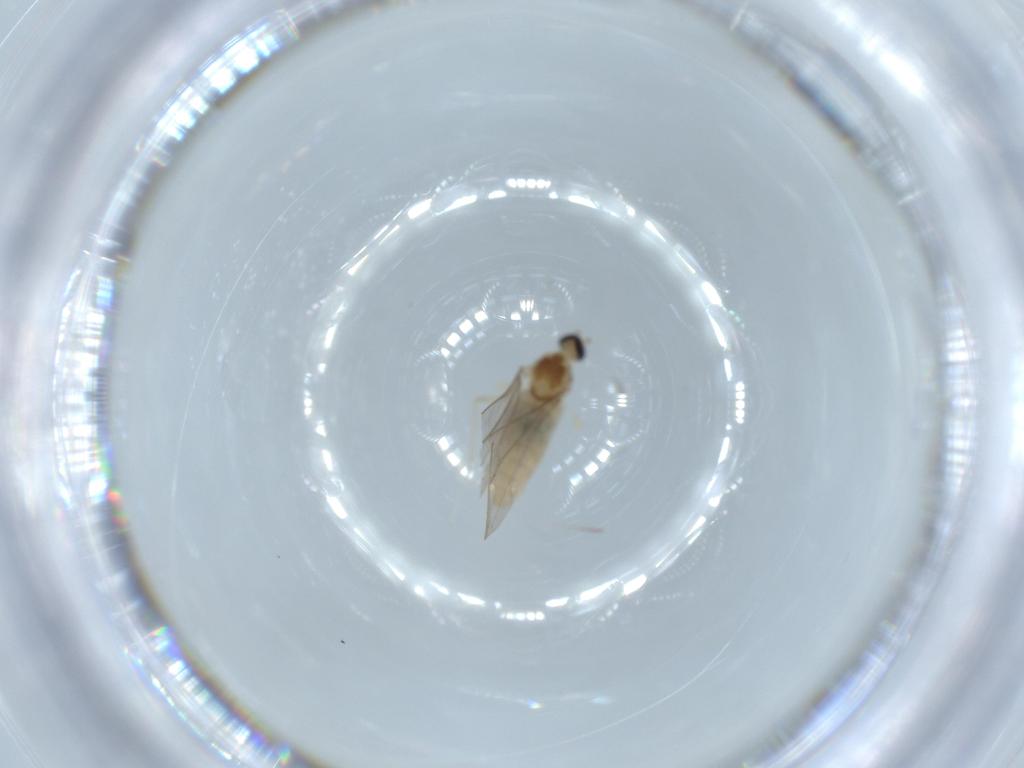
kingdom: Animalia
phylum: Arthropoda
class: Insecta
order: Diptera
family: Cecidomyiidae
